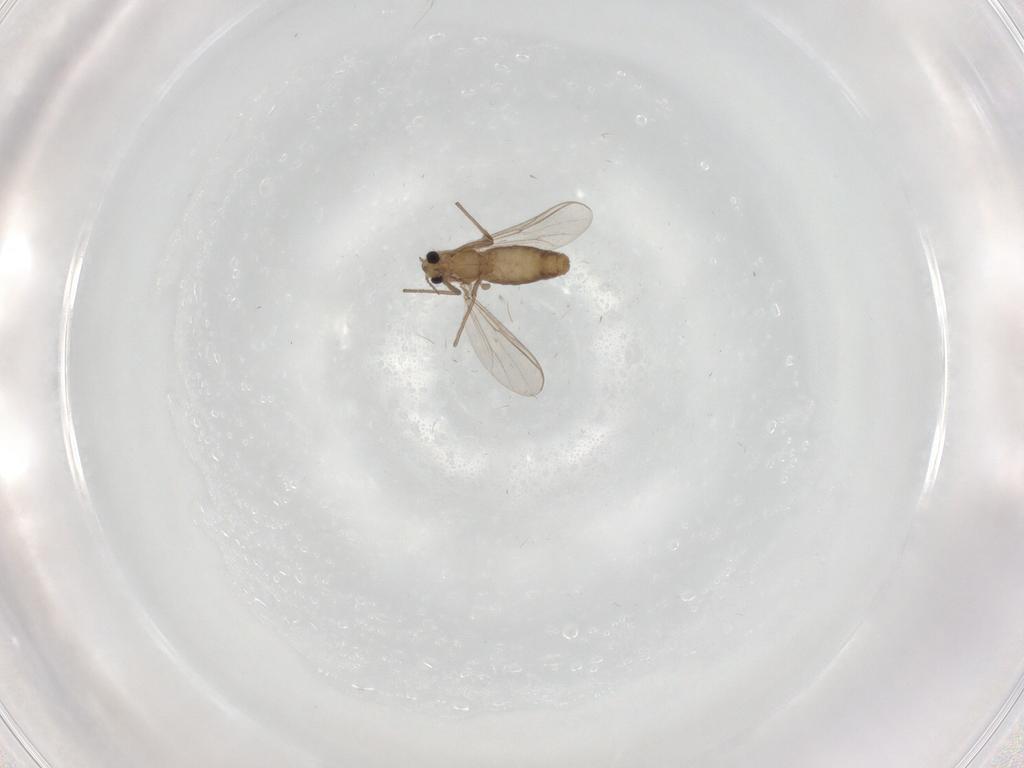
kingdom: Animalia
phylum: Arthropoda
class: Insecta
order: Diptera
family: Chironomidae
